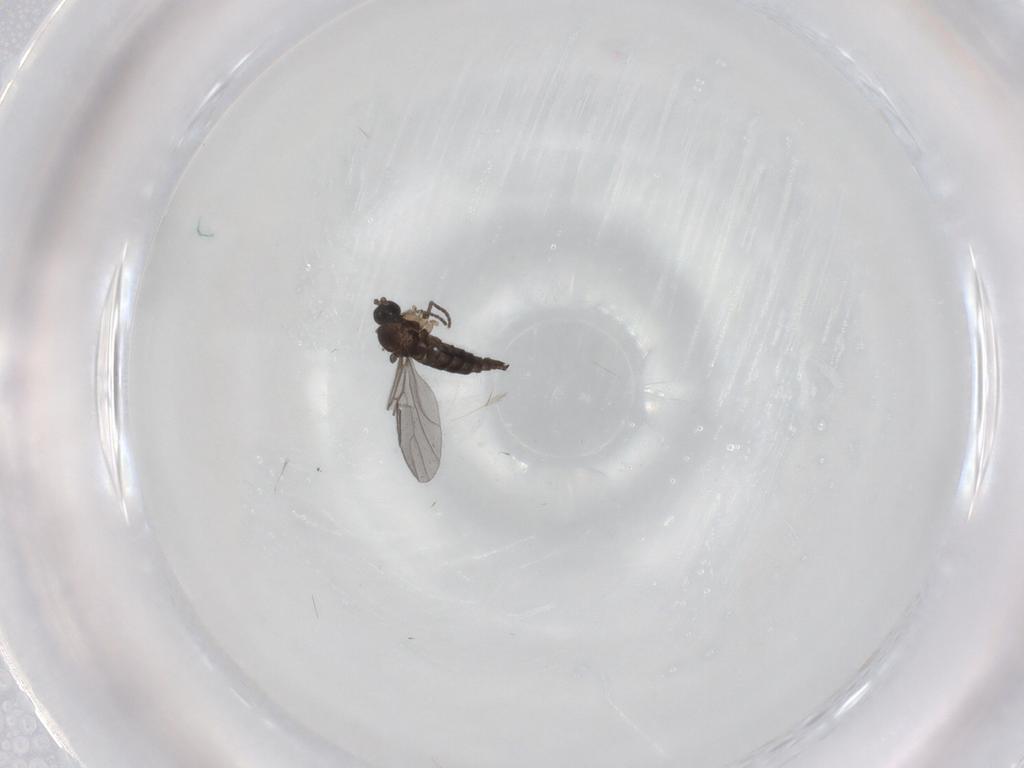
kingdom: Animalia
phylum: Arthropoda
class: Insecta
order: Diptera
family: Sciaridae
